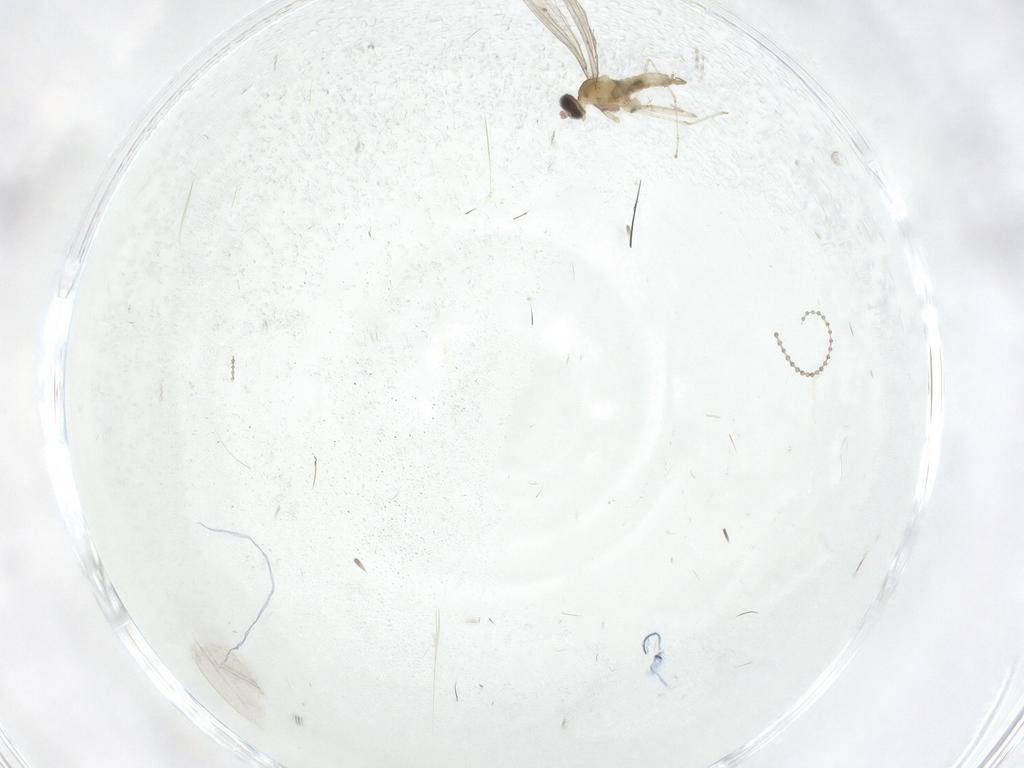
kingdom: Animalia
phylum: Arthropoda
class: Insecta
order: Diptera
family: Cecidomyiidae
